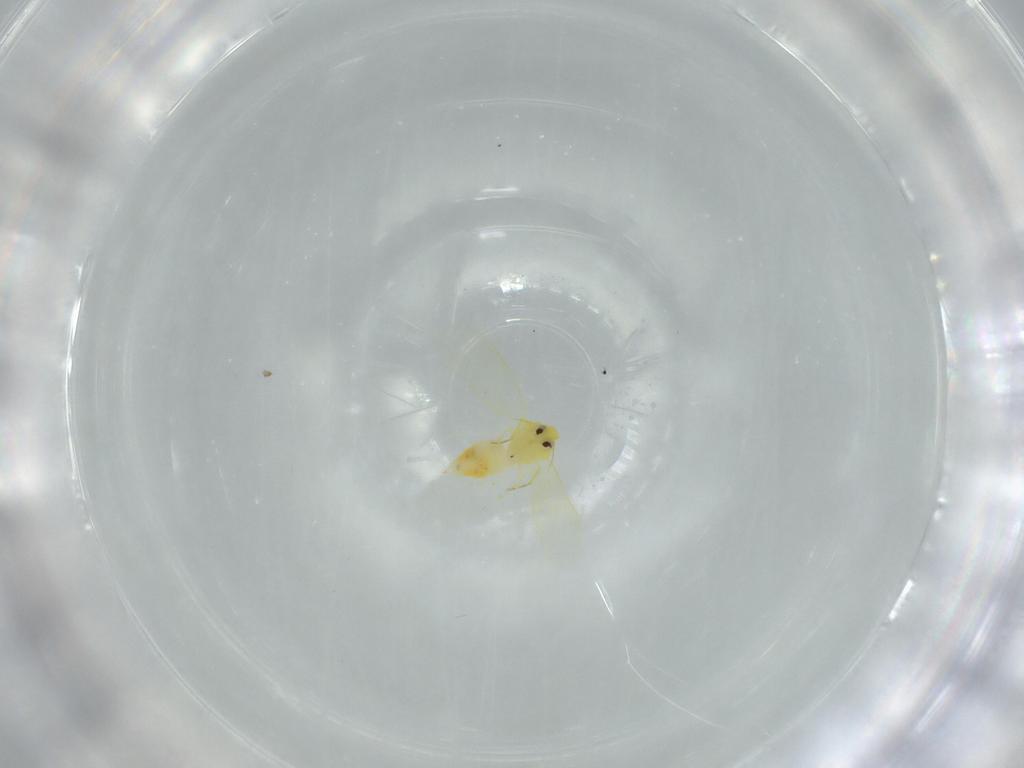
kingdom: Animalia
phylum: Arthropoda
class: Insecta
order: Hemiptera
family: Aleyrodidae
